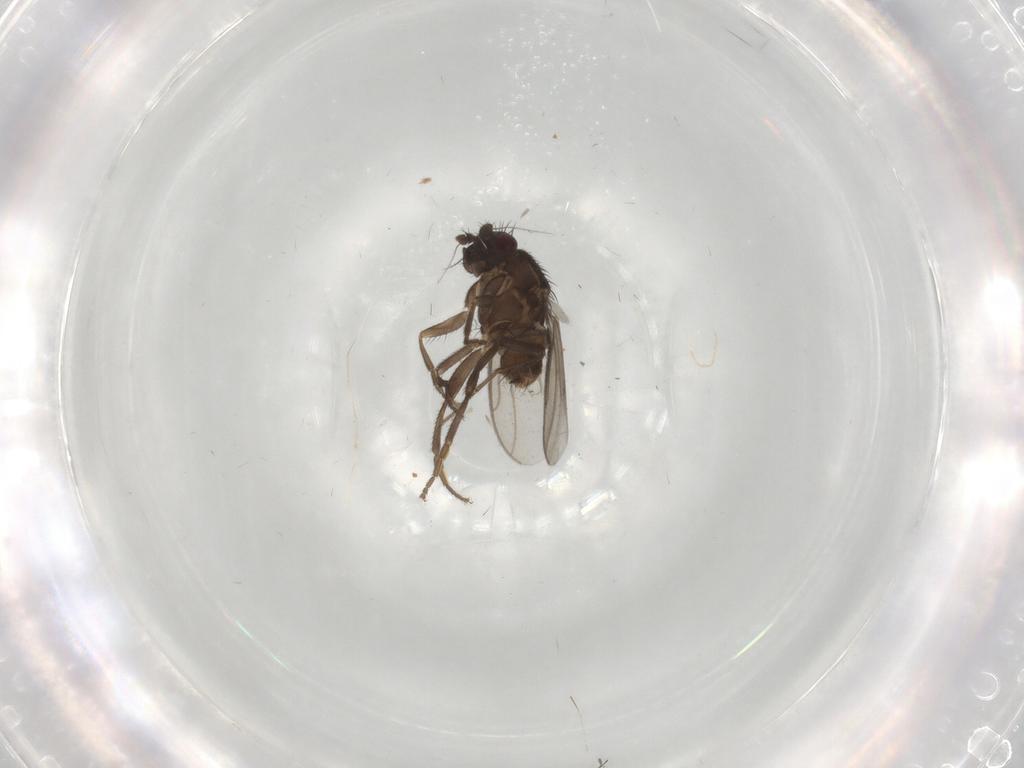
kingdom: Animalia
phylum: Arthropoda
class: Insecta
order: Diptera
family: Sphaeroceridae
